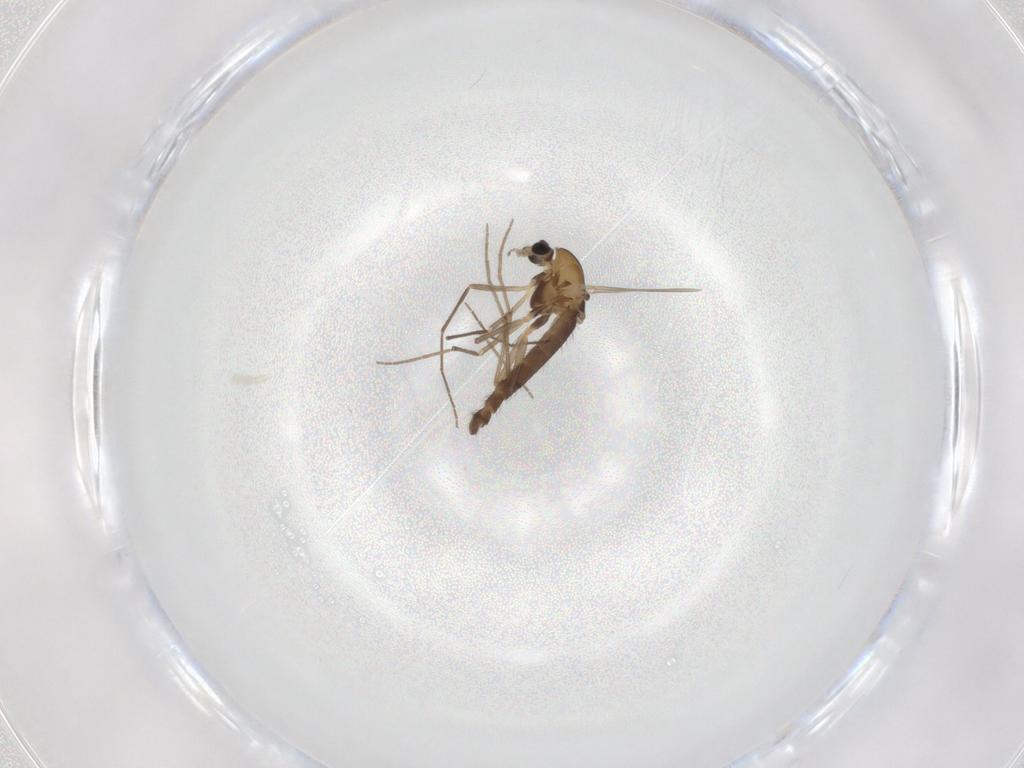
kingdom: Animalia
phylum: Arthropoda
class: Insecta
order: Diptera
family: Chironomidae
